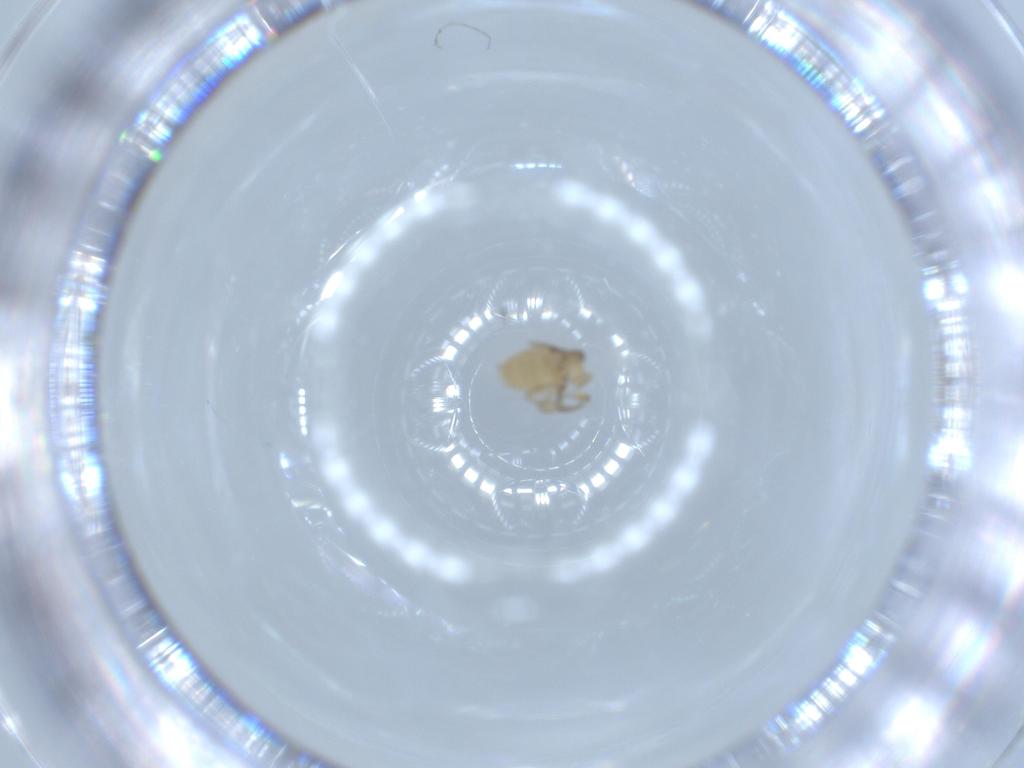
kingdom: Animalia
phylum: Arthropoda
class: Insecta
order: Diptera
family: Phoridae
